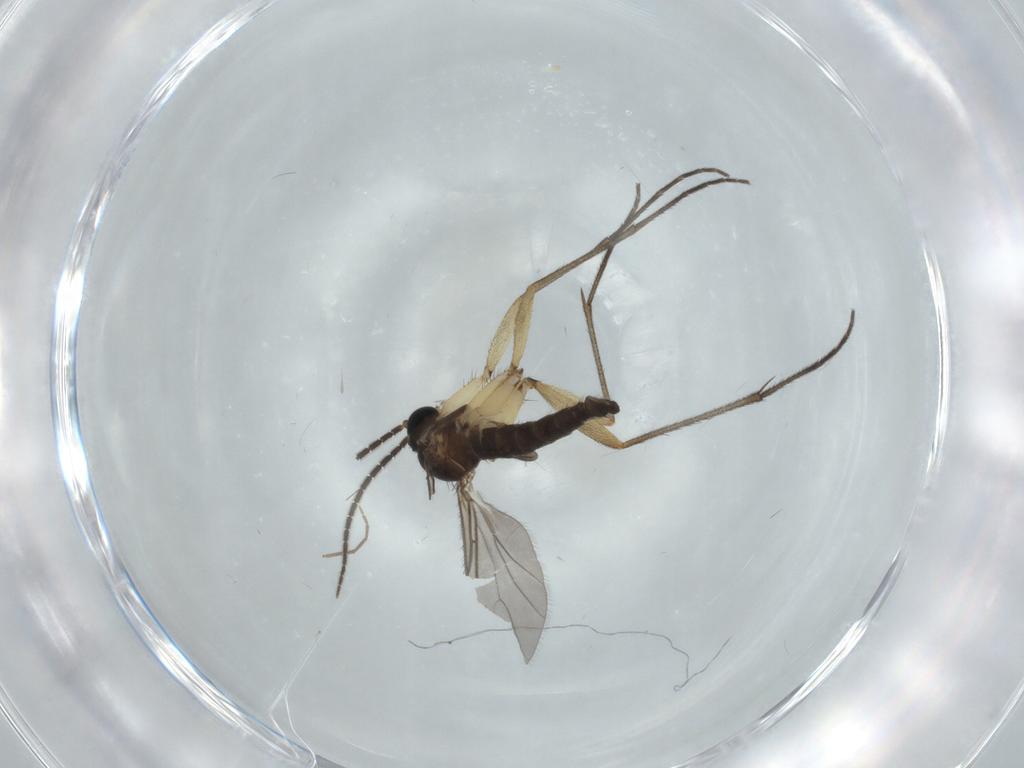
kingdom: Animalia
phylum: Arthropoda
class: Insecta
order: Diptera
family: Sciaridae
